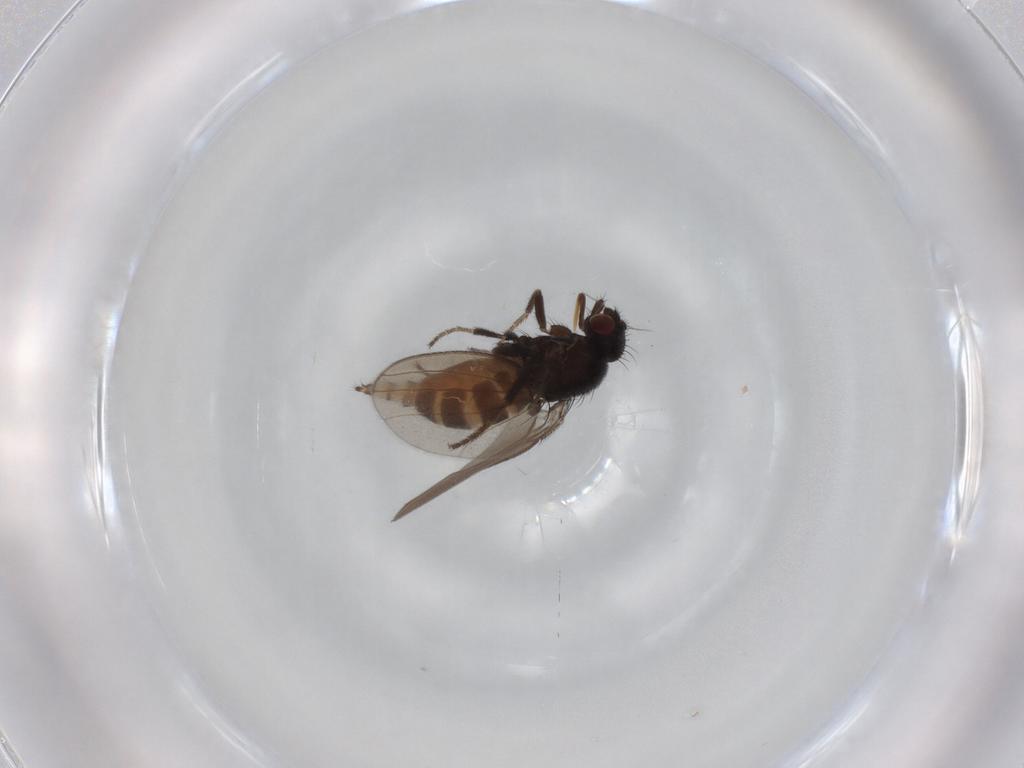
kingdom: Animalia
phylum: Arthropoda
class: Insecta
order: Diptera
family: Milichiidae
